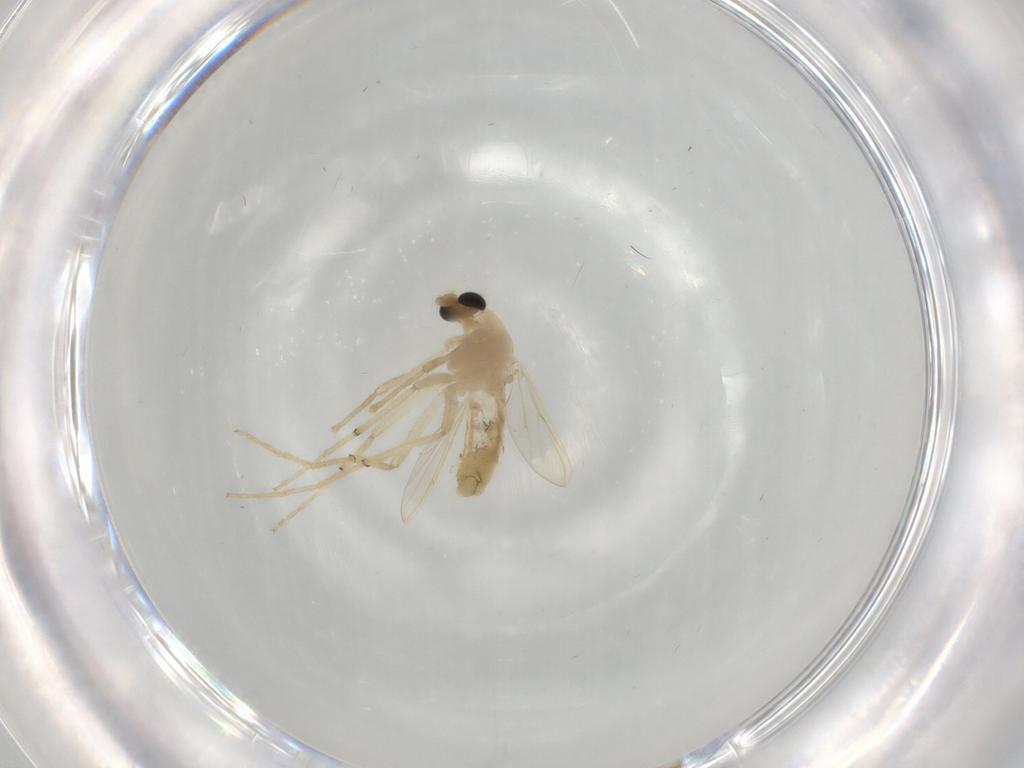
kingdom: Animalia
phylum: Arthropoda
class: Insecta
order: Diptera
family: Chironomidae
